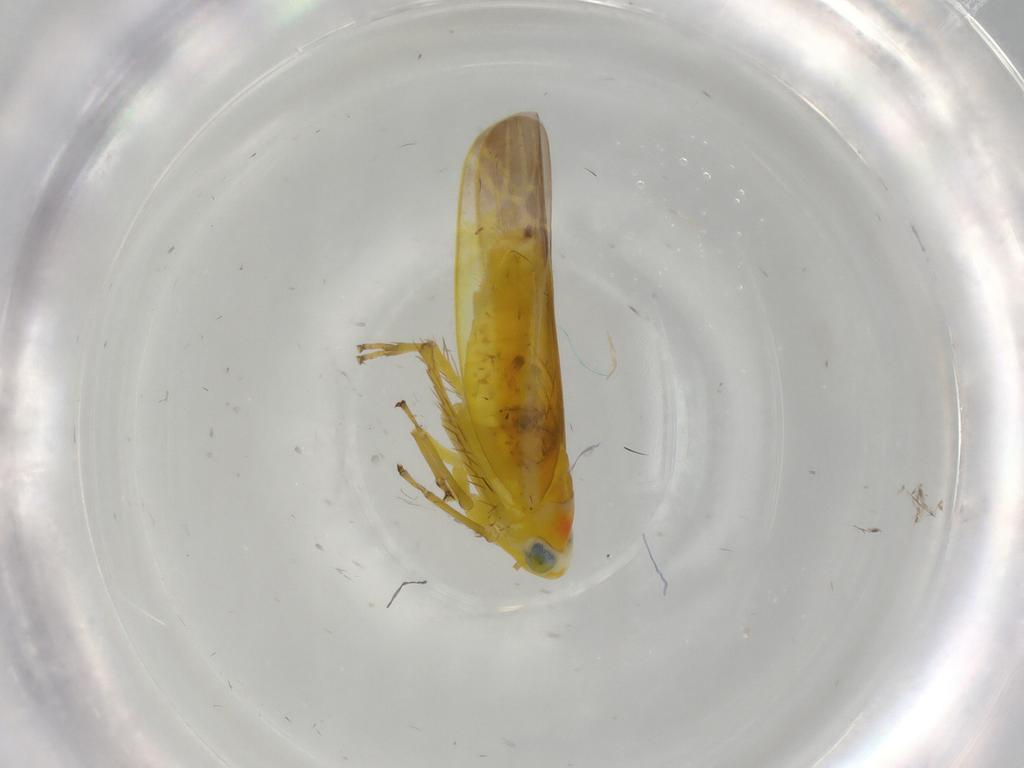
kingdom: Animalia
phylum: Arthropoda
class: Insecta
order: Hemiptera
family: Cicadellidae
